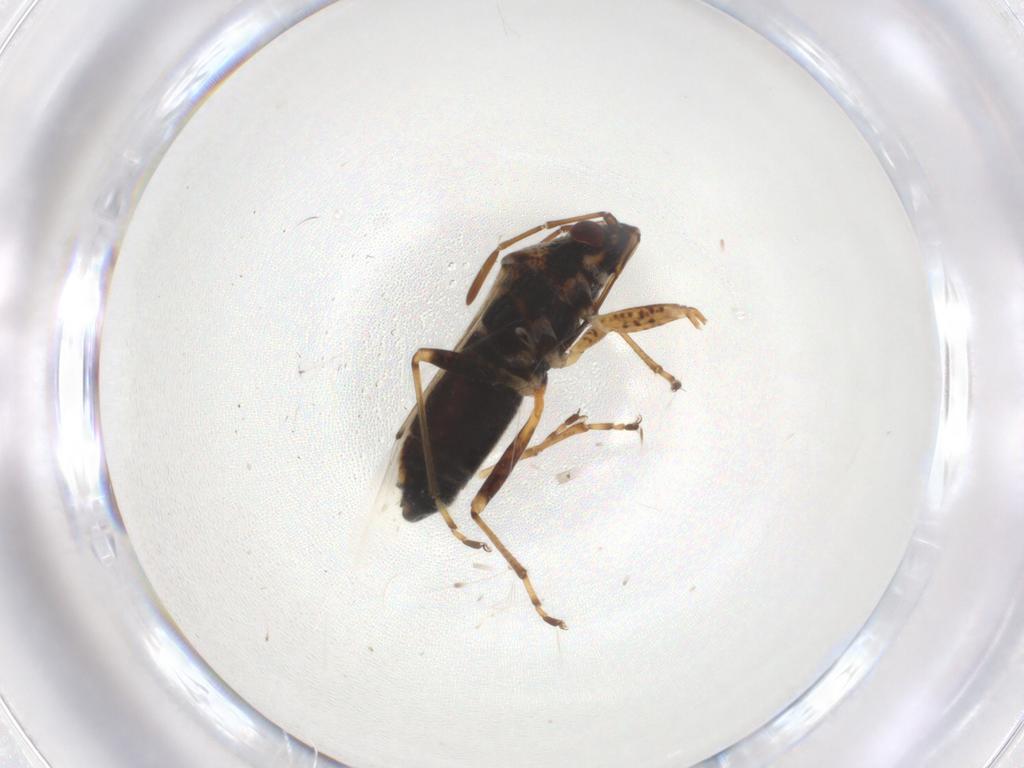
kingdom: Animalia
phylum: Arthropoda
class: Insecta
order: Hemiptera
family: Lygaeidae
